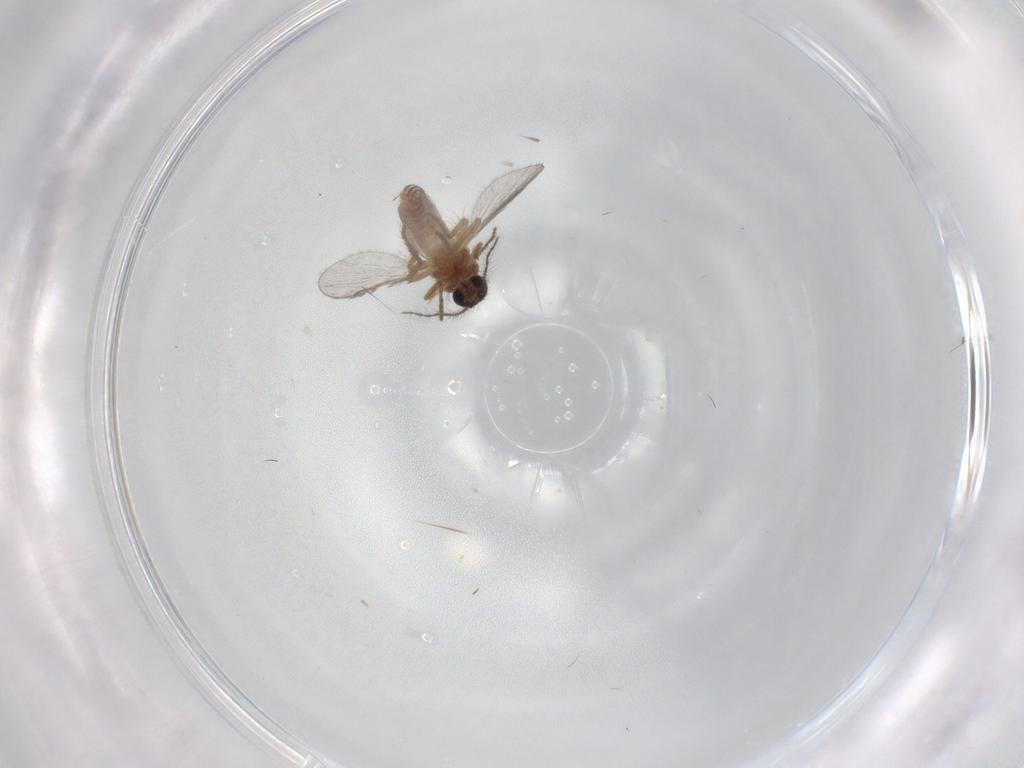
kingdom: Animalia
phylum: Arthropoda
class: Insecta
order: Diptera
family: Ceratopogonidae
